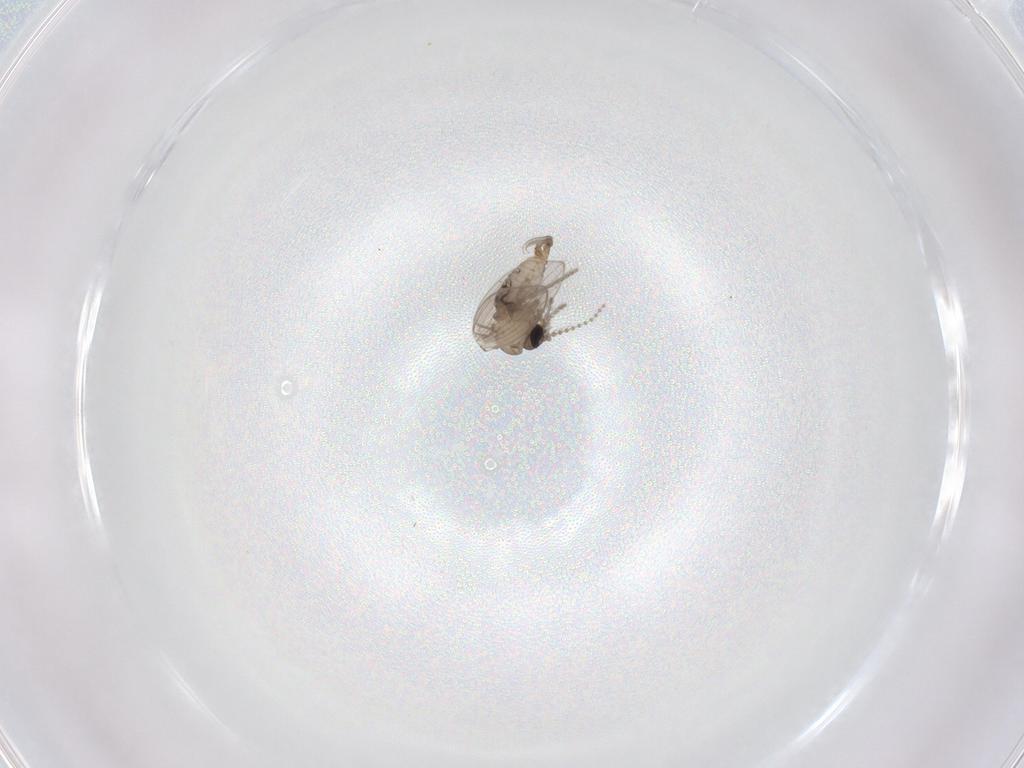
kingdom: Animalia
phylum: Arthropoda
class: Insecta
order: Diptera
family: Psychodidae
